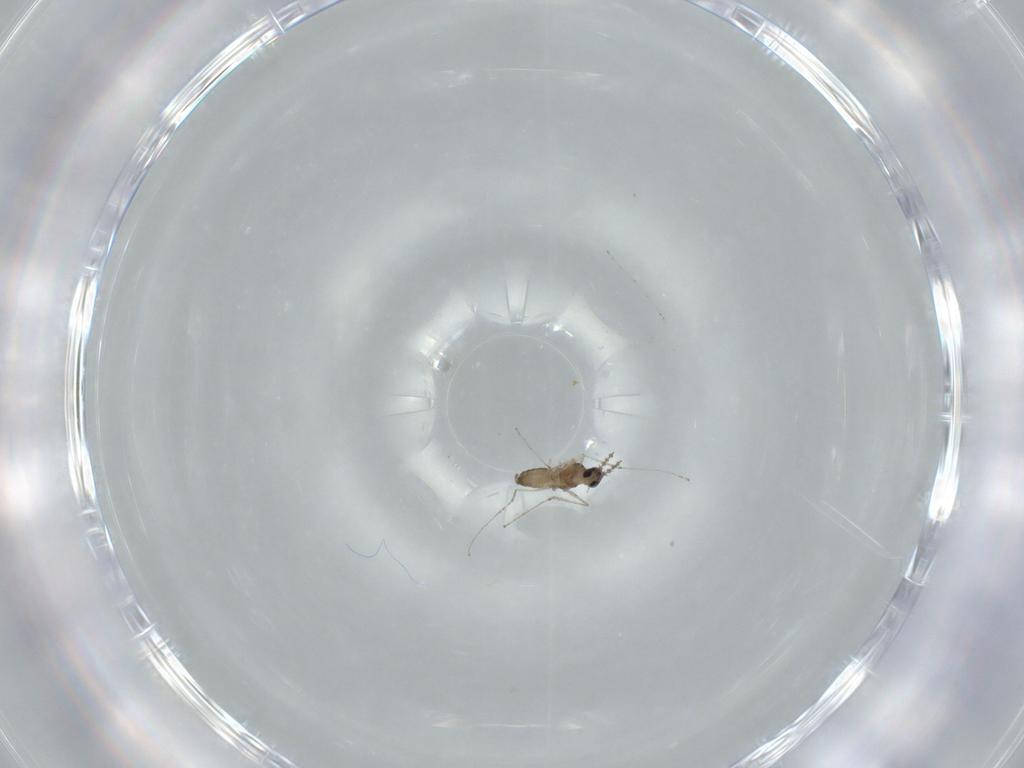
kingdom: Animalia
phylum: Arthropoda
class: Insecta
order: Diptera
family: Cecidomyiidae
